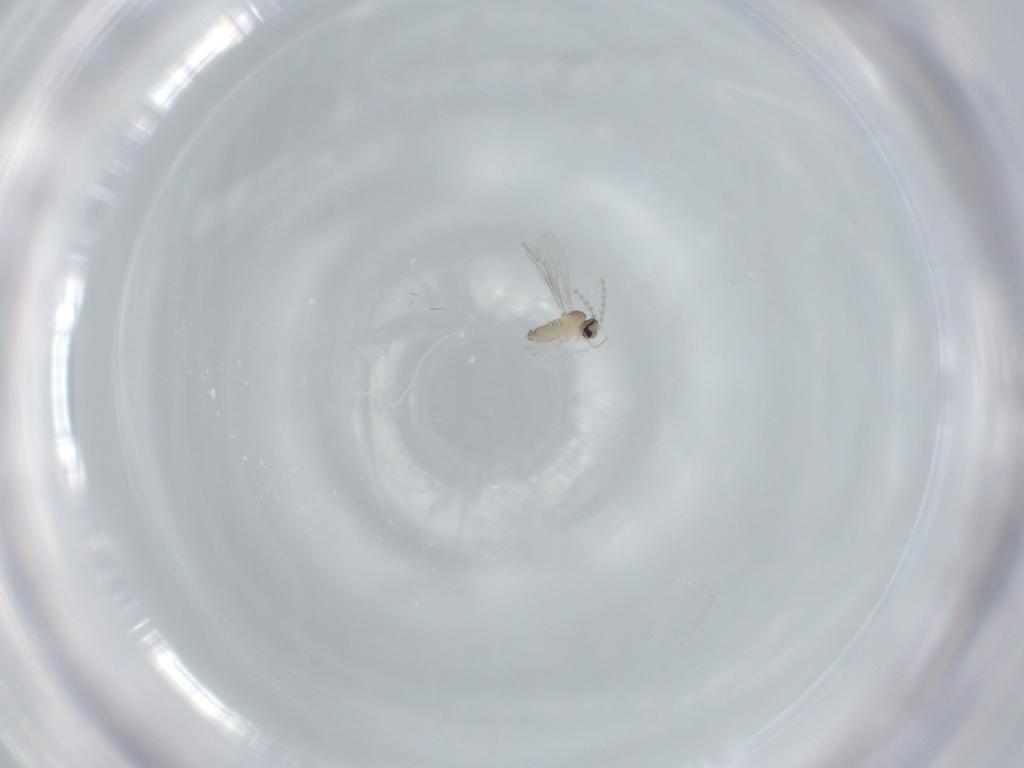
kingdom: Animalia
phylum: Arthropoda
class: Insecta
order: Diptera
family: Cecidomyiidae
